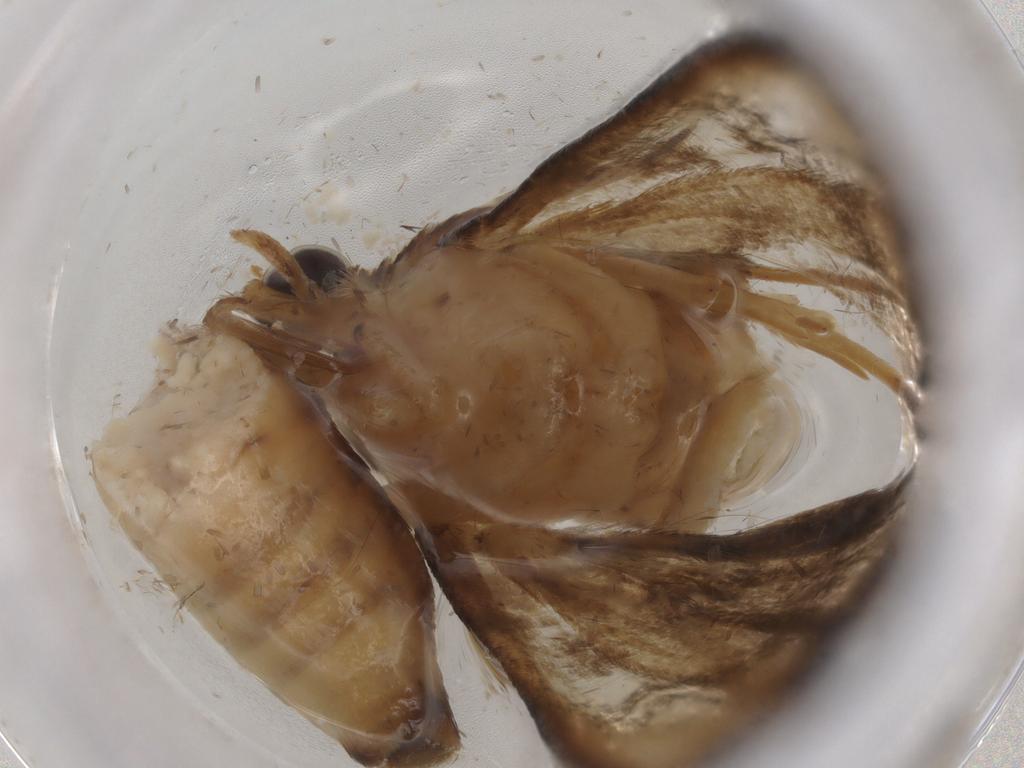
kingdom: Animalia
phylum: Arthropoda
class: Insecta
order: Lepidoptera
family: Crambidae
